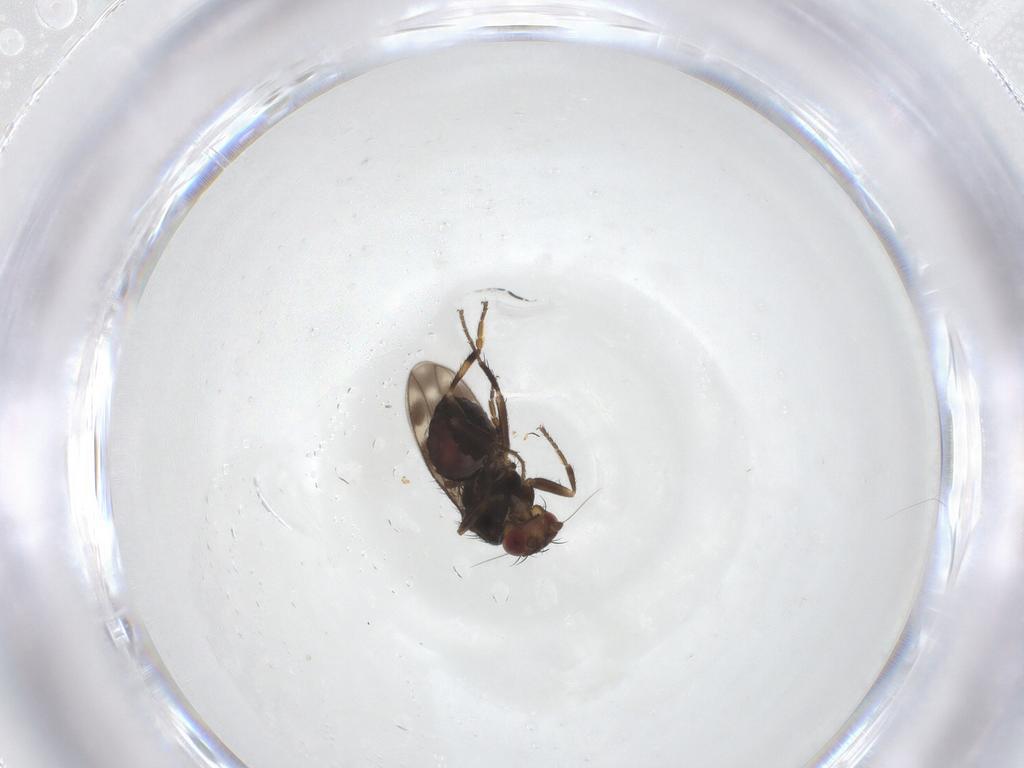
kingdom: Animalia
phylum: Arthropoda
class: Insecta
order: Diptera
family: Sphaeroceridae
